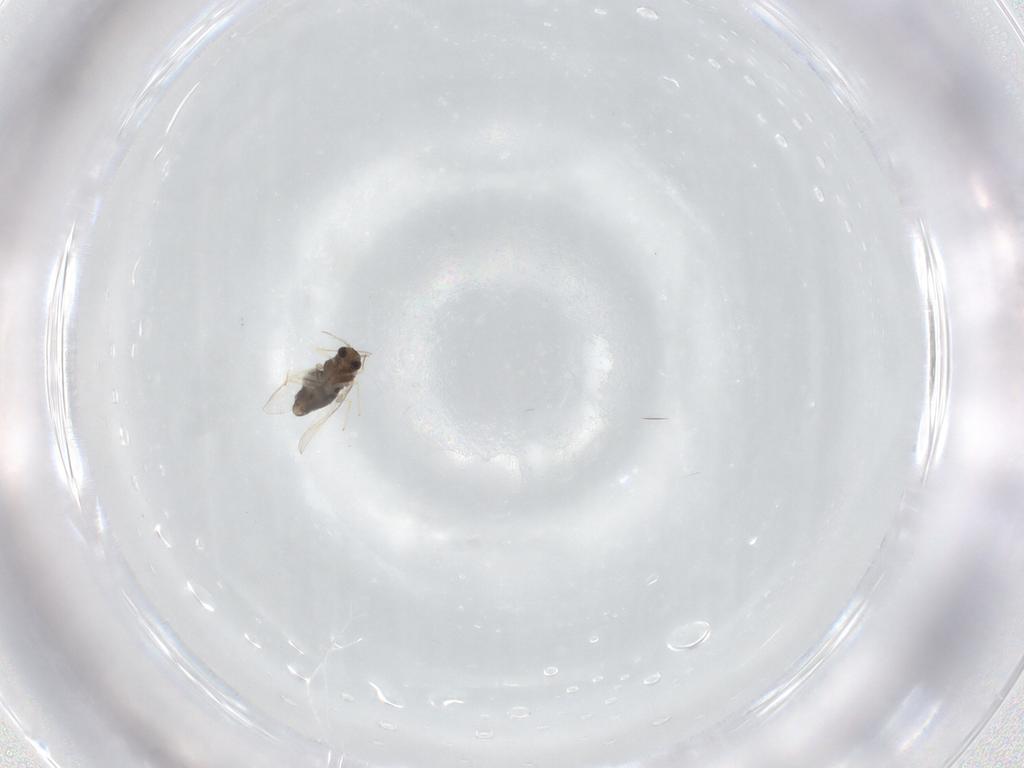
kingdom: Animalia
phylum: Arthropoda
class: Insecta
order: Diptera
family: Chironomidae
